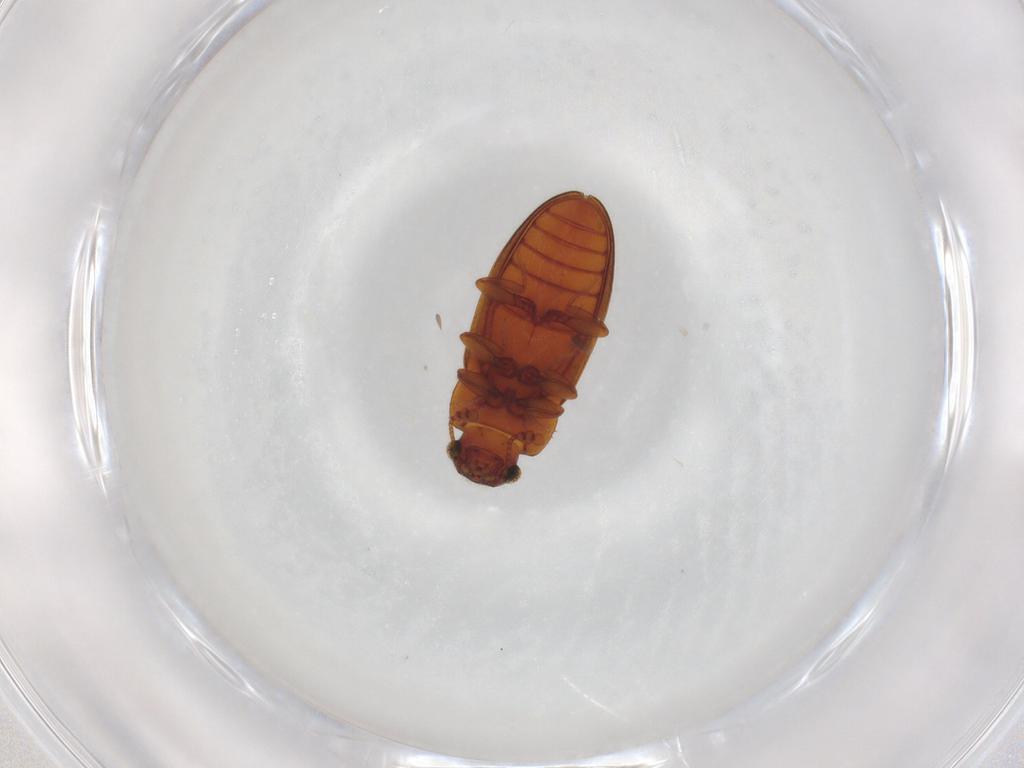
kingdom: Animalia
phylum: Arthropoda
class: Insecta
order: Coleoptera
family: Erotylidae
